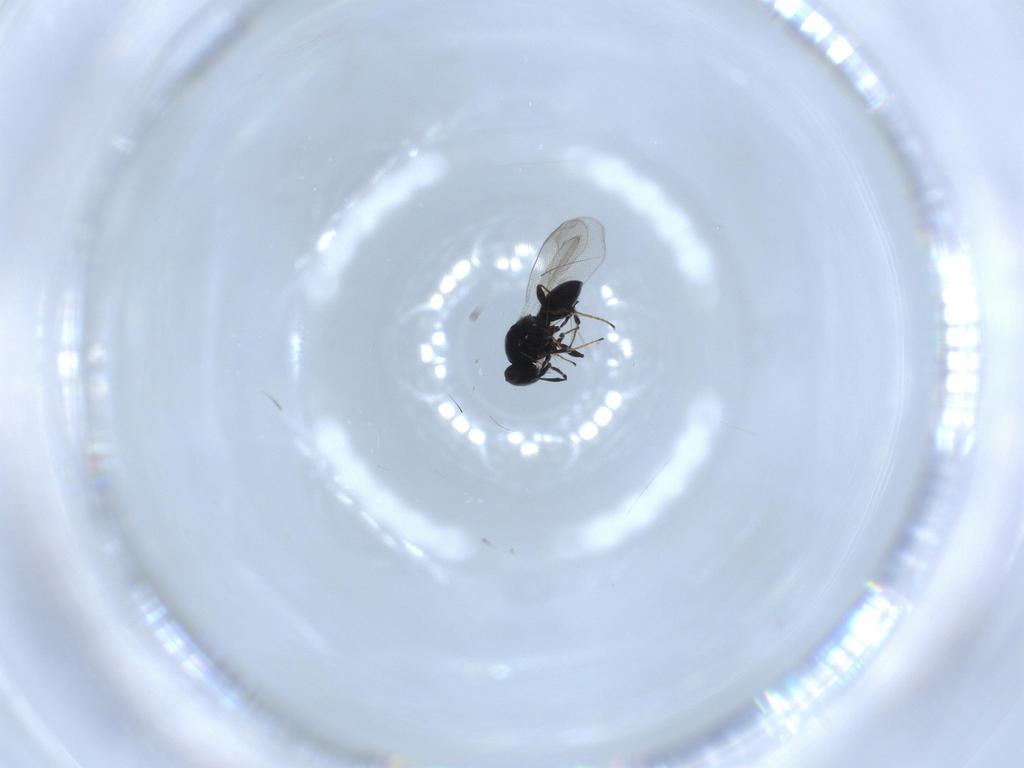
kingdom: Animalia
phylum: Arthropoda
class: Insecta
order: Hymenoptera
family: Platygastridae
